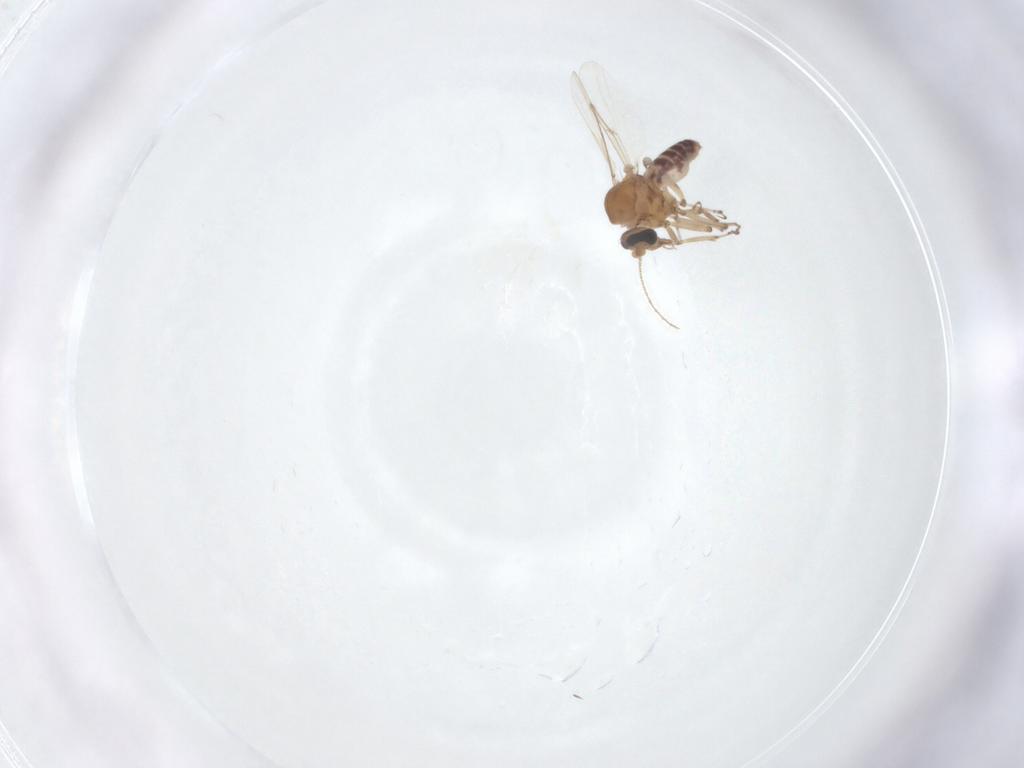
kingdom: Animalia
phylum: Arthropoda
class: Insecta
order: Diptera
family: Ceratopogonidae
